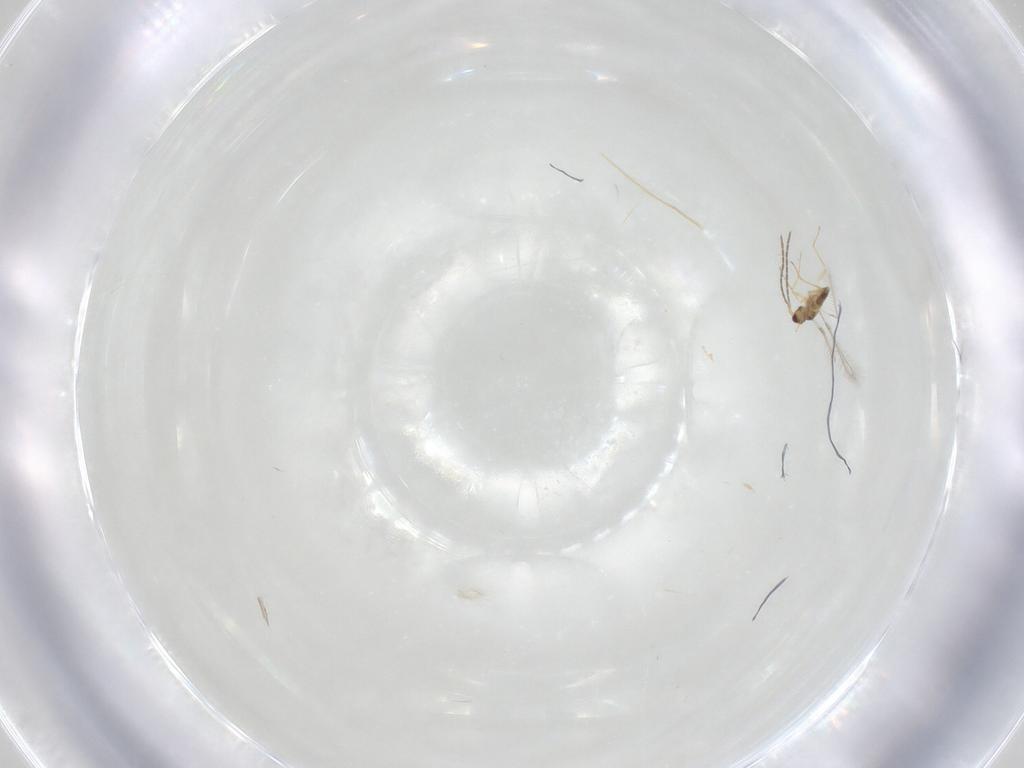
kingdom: Animalia
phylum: Arthropoda
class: Insecta
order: Hymenoptera
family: Mymaridae
